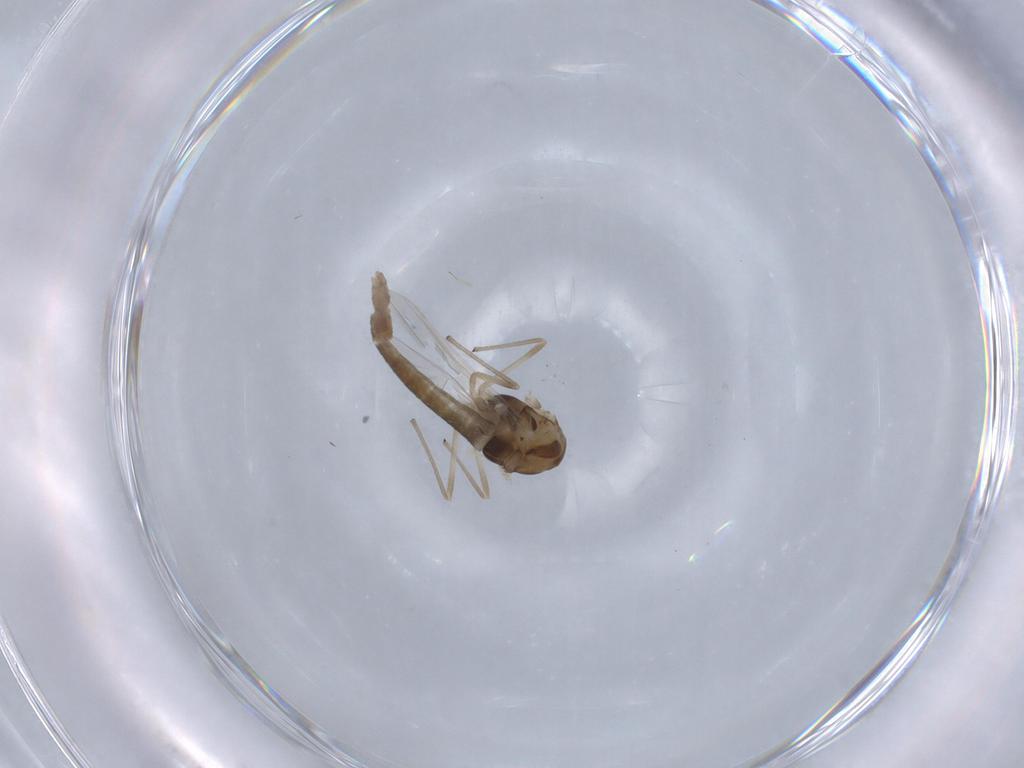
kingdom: Animalia
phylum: Arthropoda
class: Insecta
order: Diptera
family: Chironomidae
